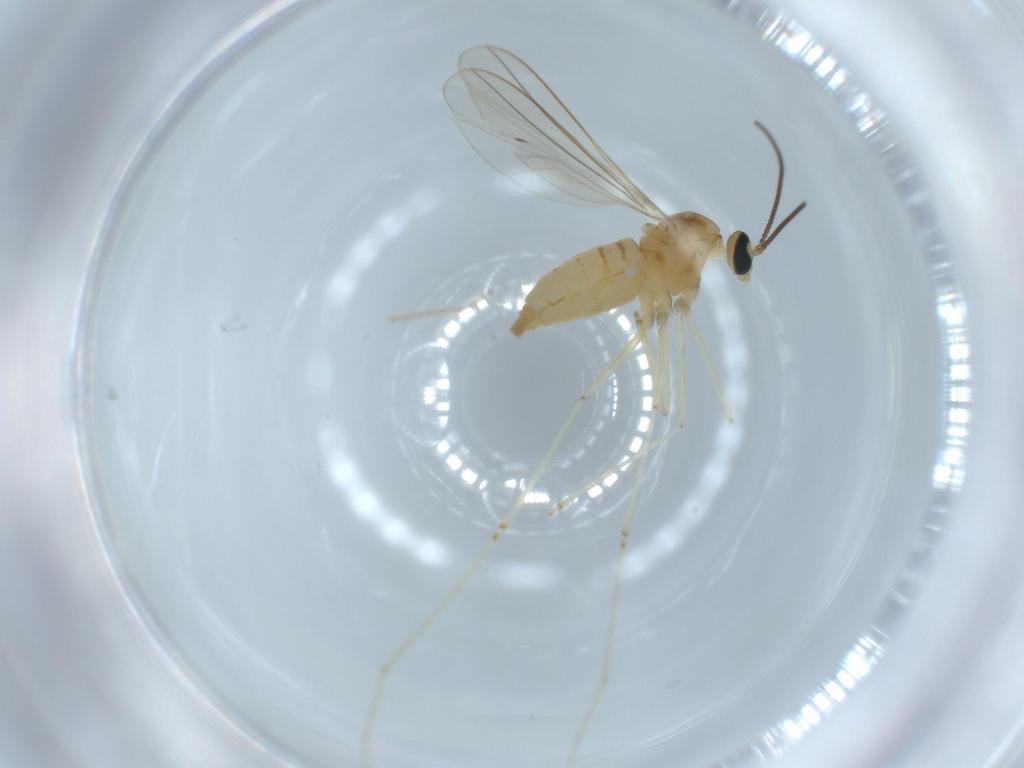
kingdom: Animalia
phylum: Arthropoda
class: Insecta
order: Diptera
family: Cecidomyiidae
